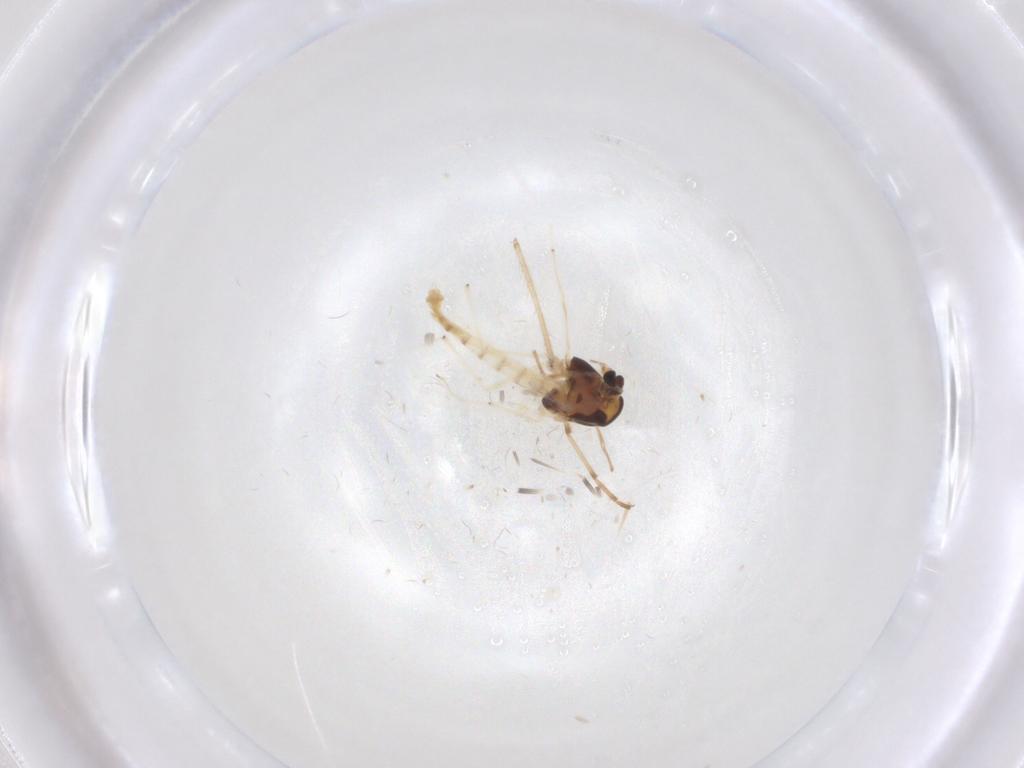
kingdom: Animalia
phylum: Arthropoda
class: Insecta
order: Diptera
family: Chironomidae
